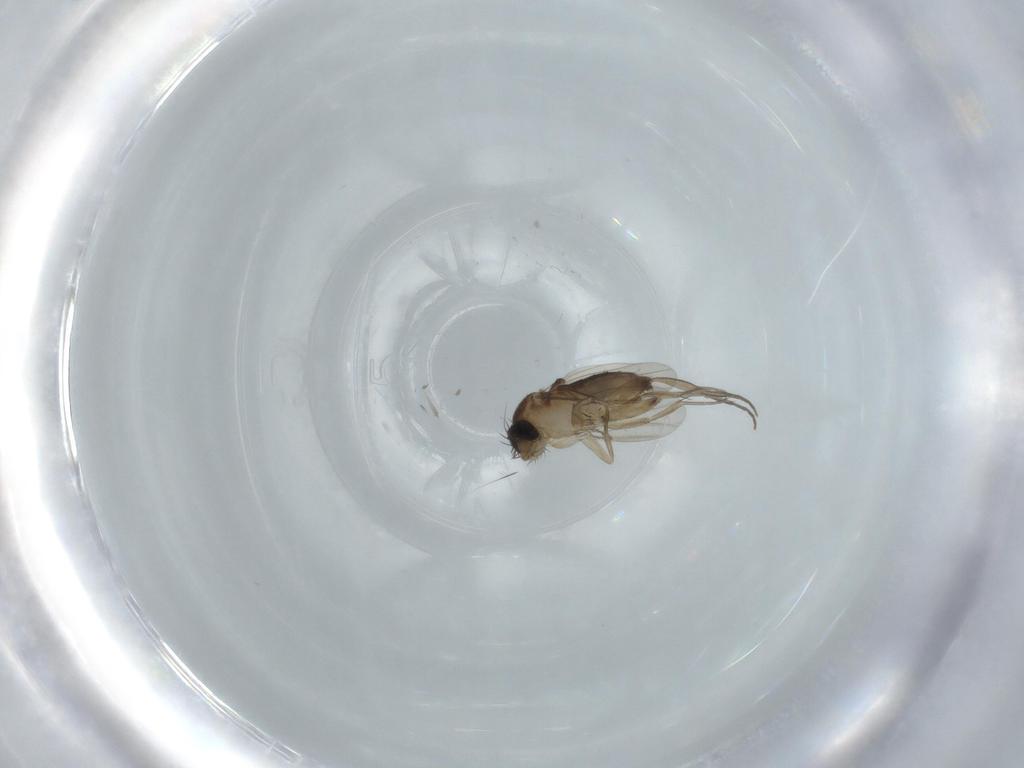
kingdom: Animalia
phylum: Arthropoda
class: Insecta
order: Diptera
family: Phoridae
